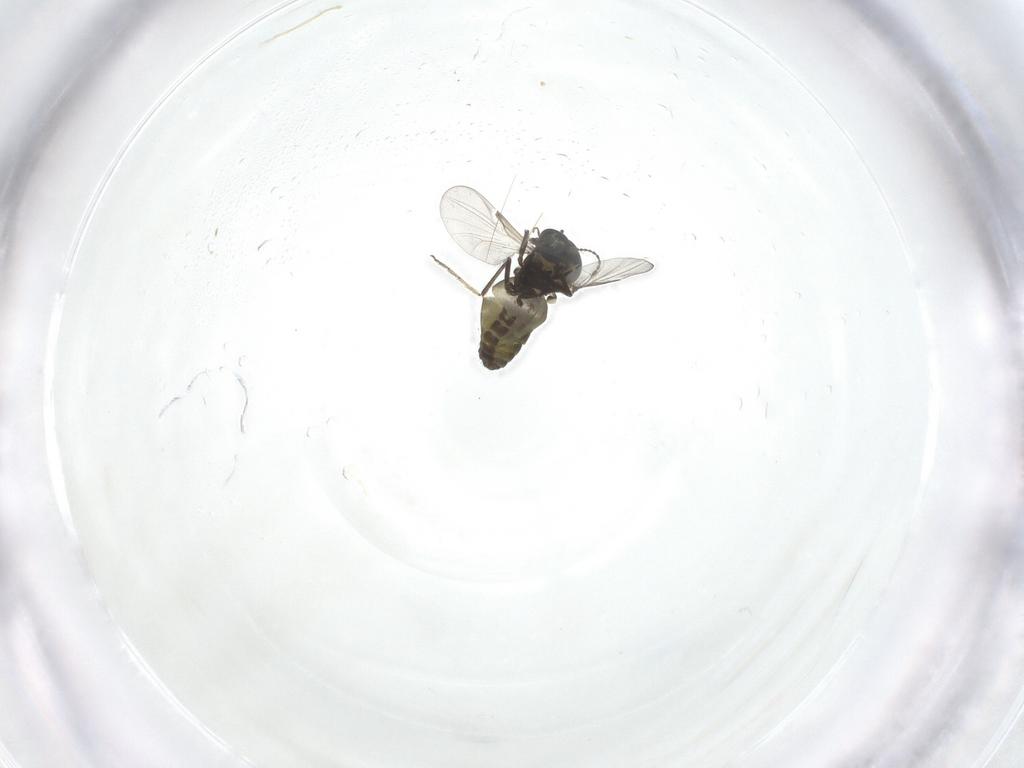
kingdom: Animalia
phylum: Arthropoda
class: Insecta
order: Diptera
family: Ceratopogonidae
